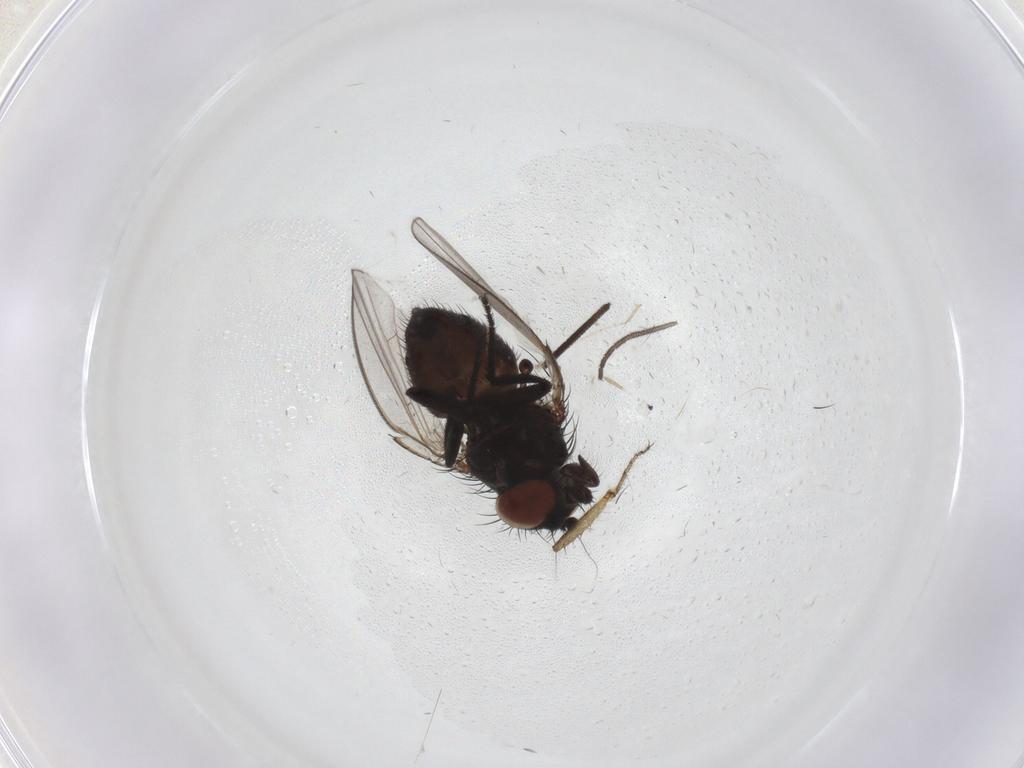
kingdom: Animalia
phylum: Arthropoda
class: Insecta
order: Diptera
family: Milichiidae
